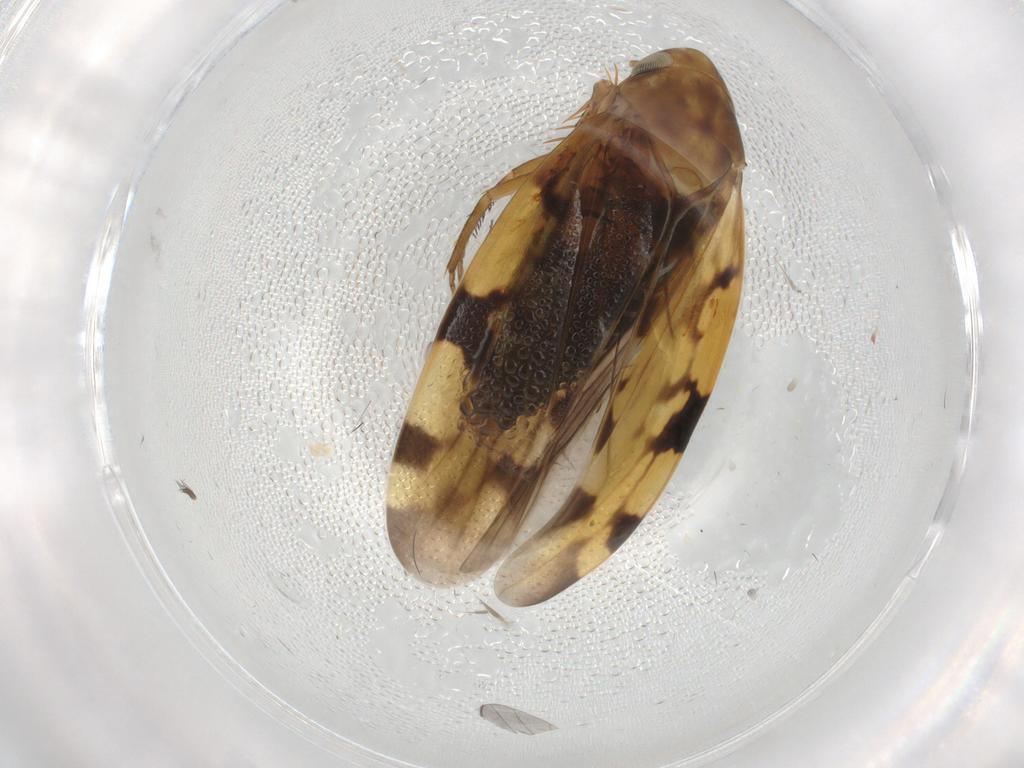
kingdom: Animalia
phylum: Arthropoda
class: Insecta
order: Hemiptera
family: Cicadellidae
